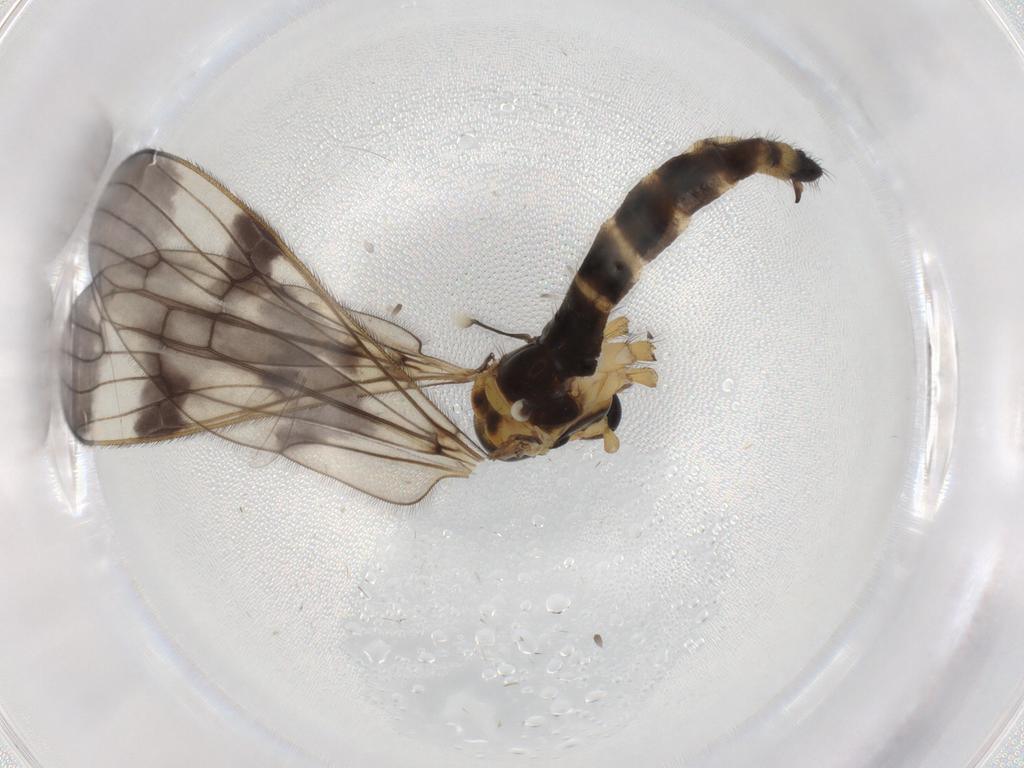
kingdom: Animalia
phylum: Arthropoda
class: Insecta
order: Diptera
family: Limoniidae
